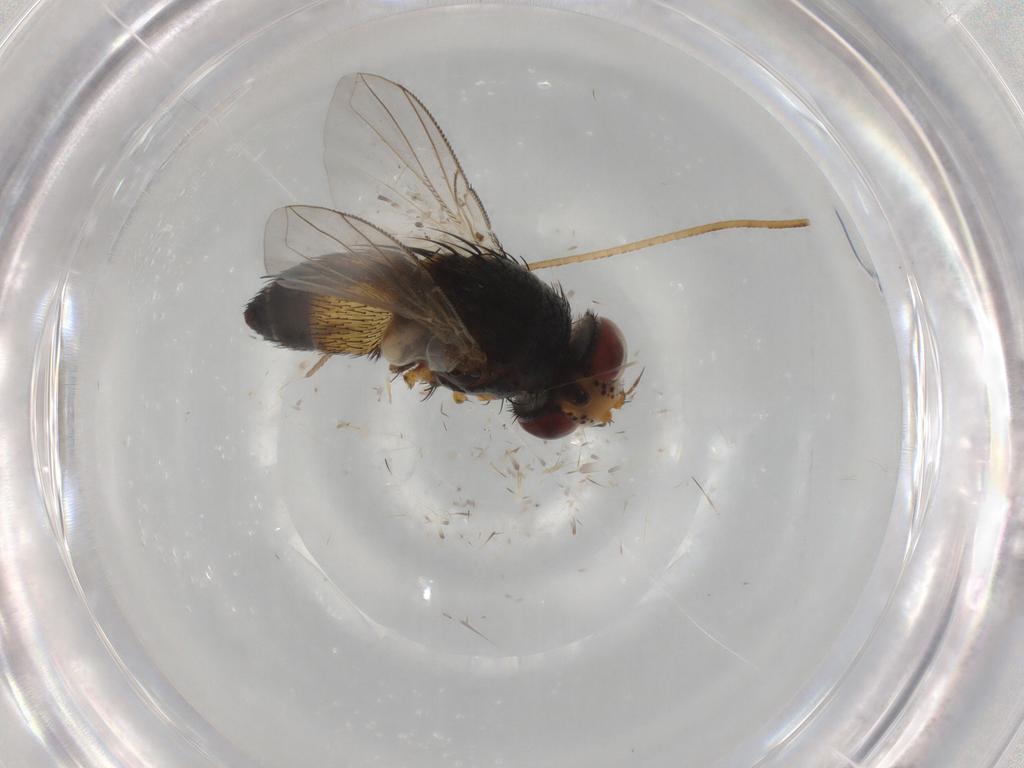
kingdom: Animalia
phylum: Arthropoda
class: Insecta
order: Diptera
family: Tachinidae
